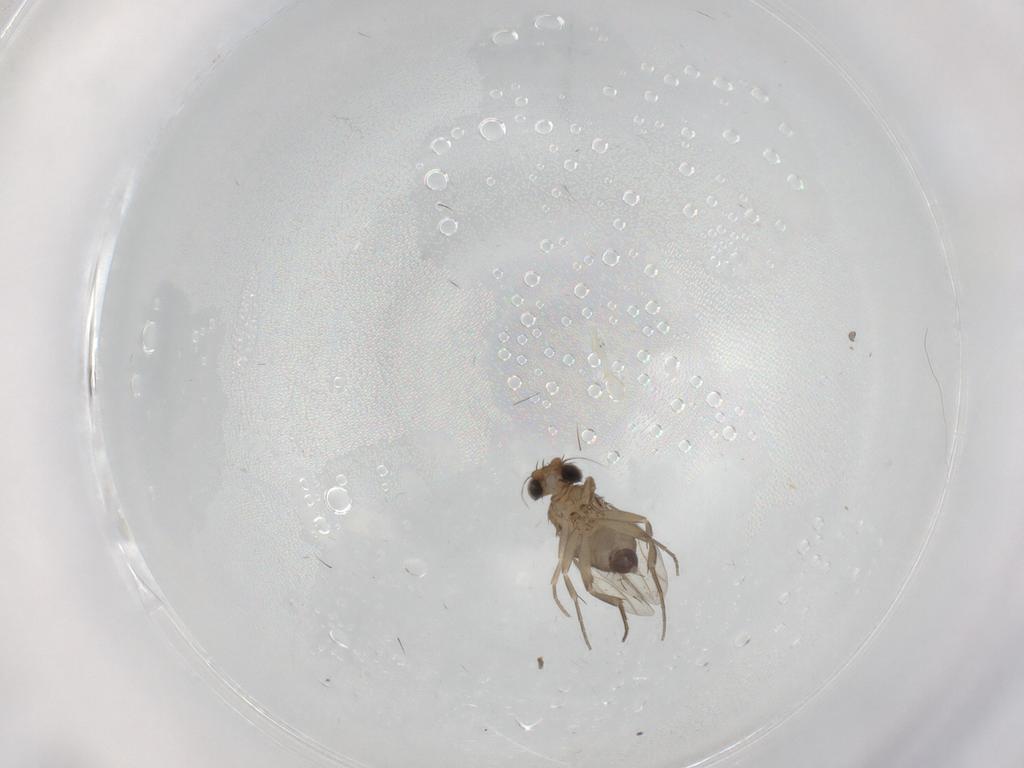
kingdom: Animalia
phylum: Arthropoda
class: Insecta
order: Diptera
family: Phoridae
